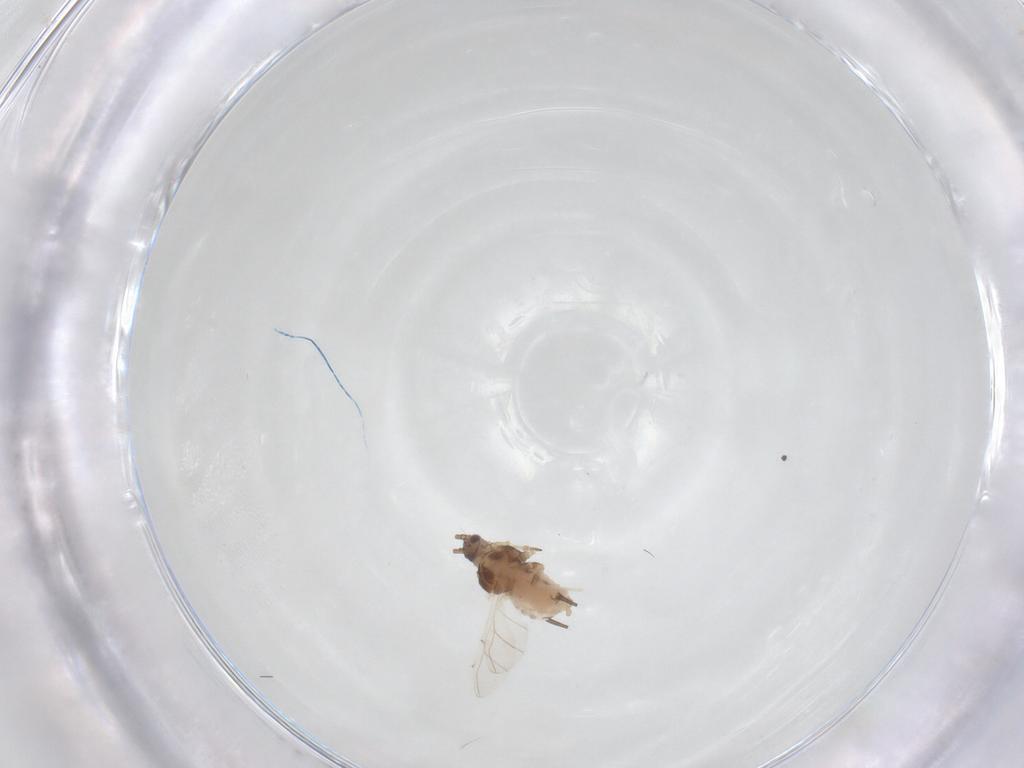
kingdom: Animalia
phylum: Arthropoda
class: Insecta
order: Hemiptera
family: Aphididae
